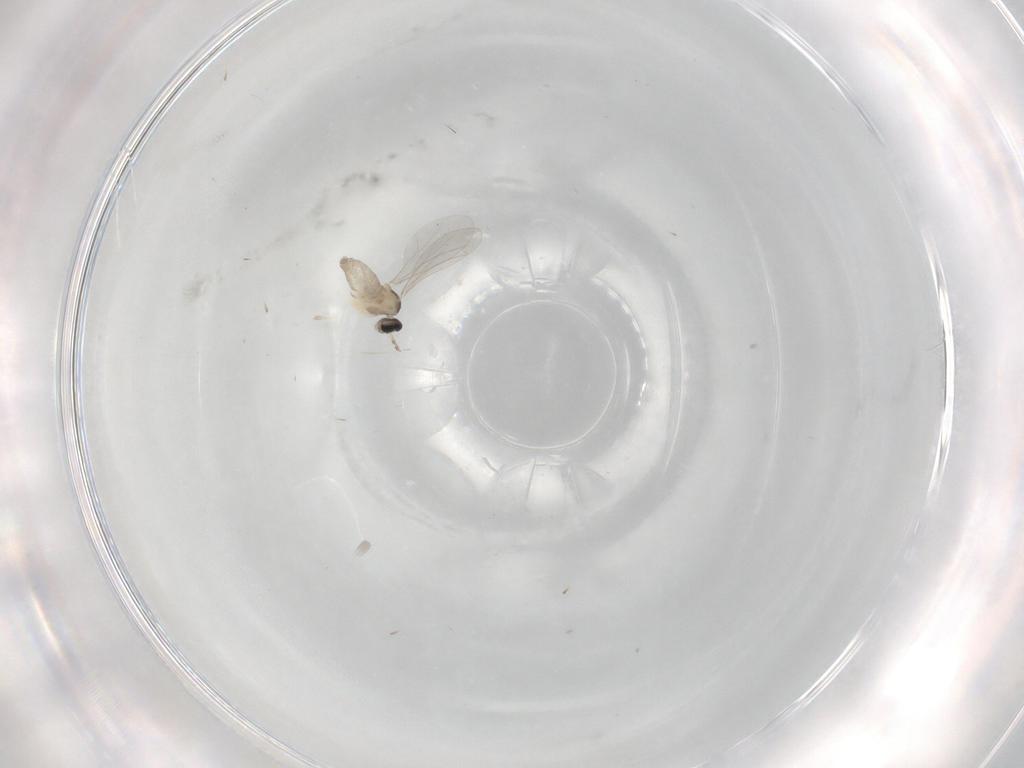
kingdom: Animalia
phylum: Arthropoda
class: Insecta
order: Diptera
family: Cecidomyiidae
